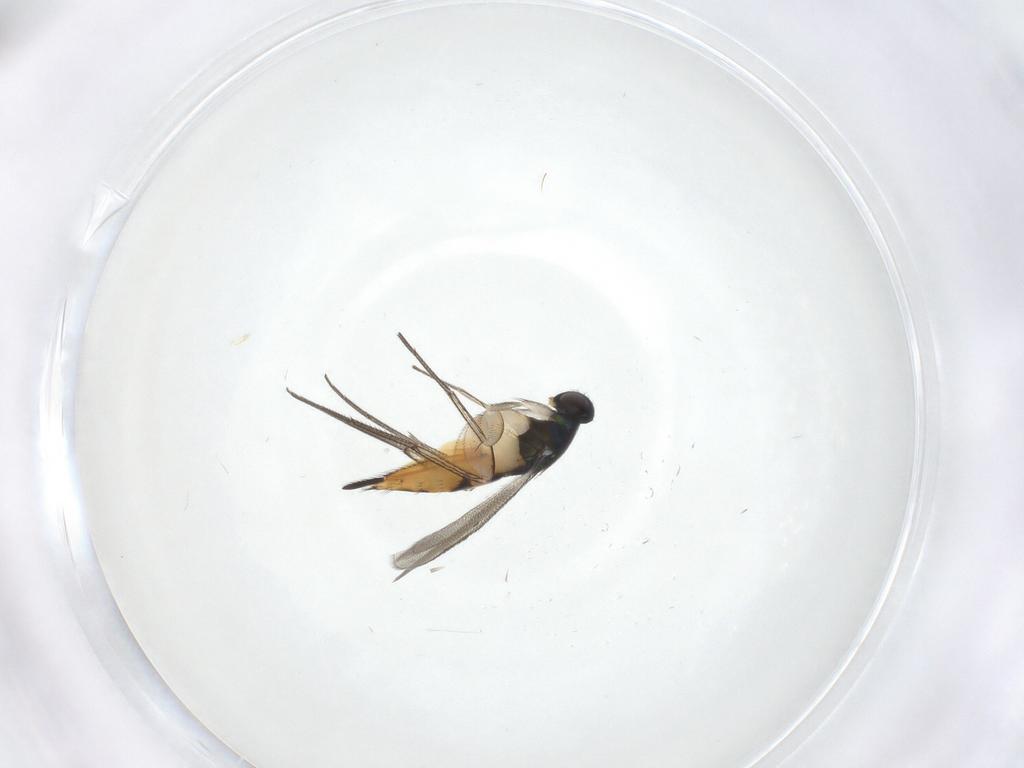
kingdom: Animalia
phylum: Arthropoda
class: Insecta
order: Hymenoptera
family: Eulophidae
